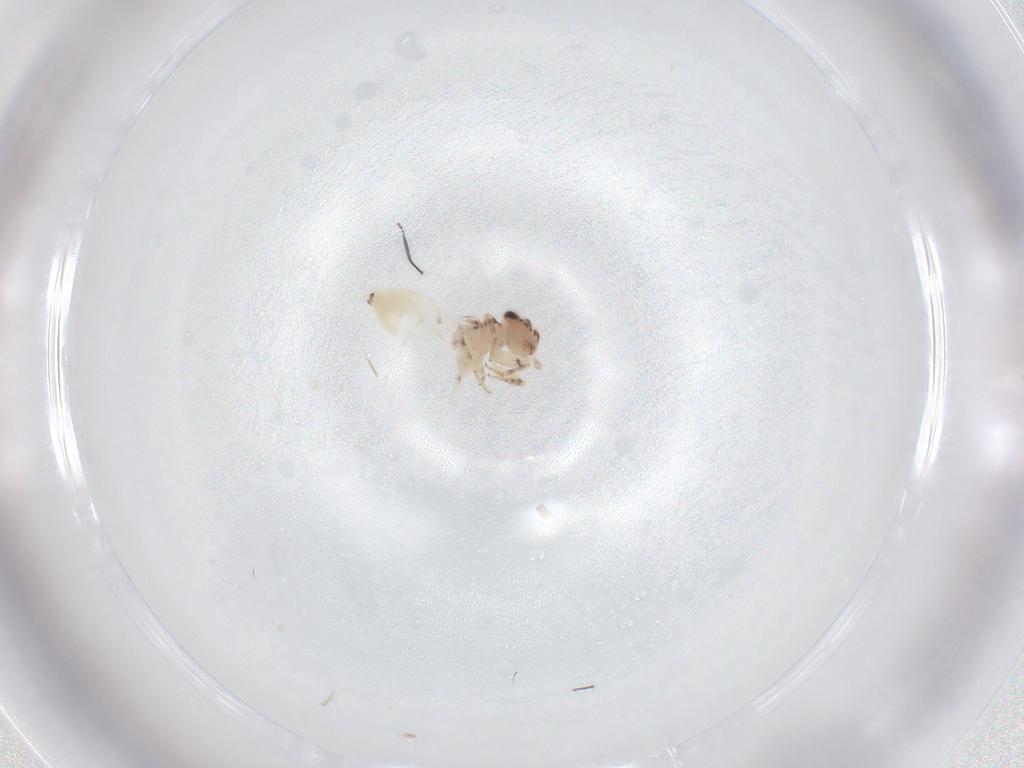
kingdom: Animalia
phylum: Arthropoda
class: Insecta
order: Psocodea
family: Lepidopsocidae
